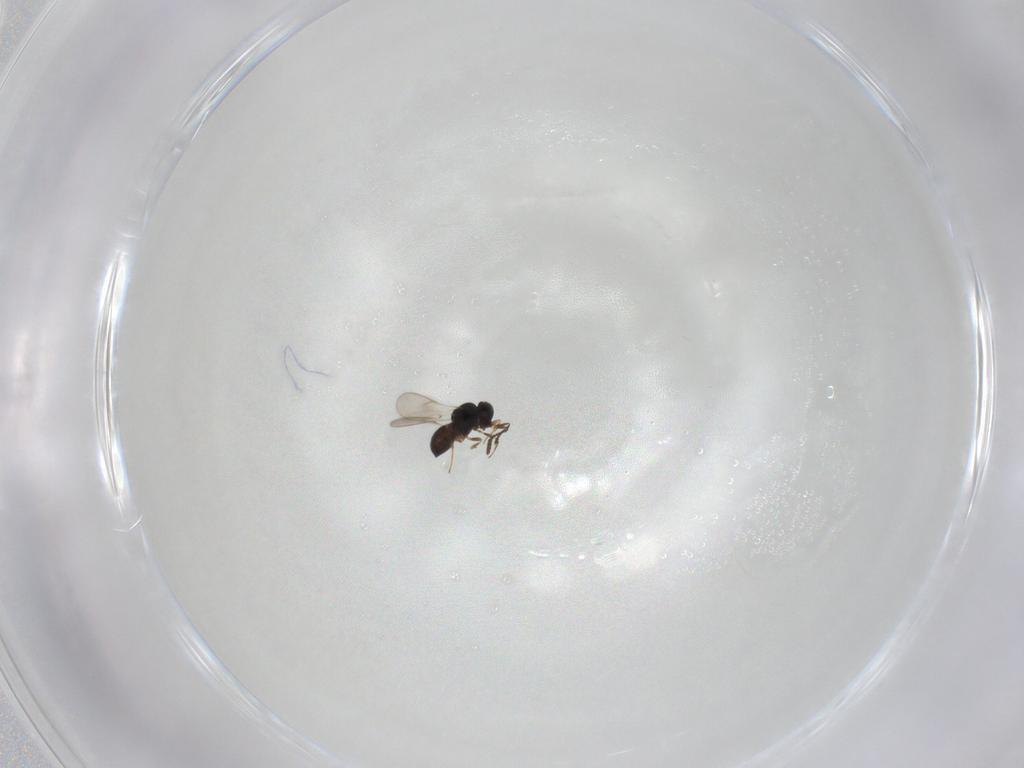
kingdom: Animalia
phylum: Arthropoda
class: Insecta
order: Hymenoptera
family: Scelionidae
